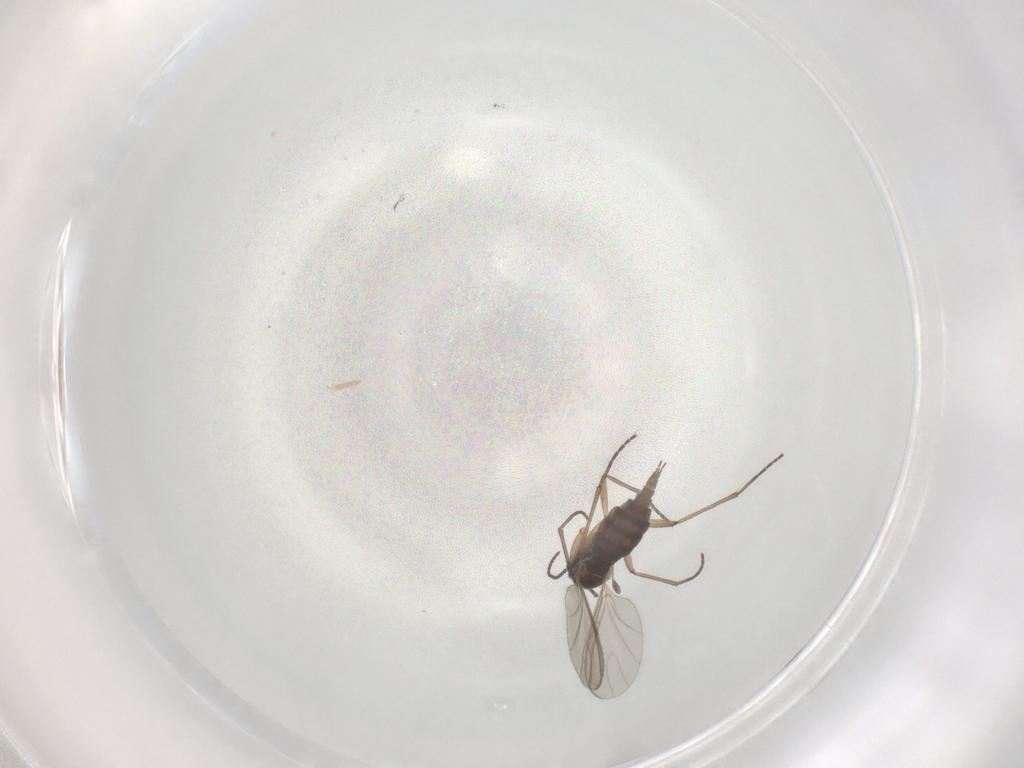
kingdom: Animalia
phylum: Arthropoda
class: Insecta
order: Diptera
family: Sciaridae
